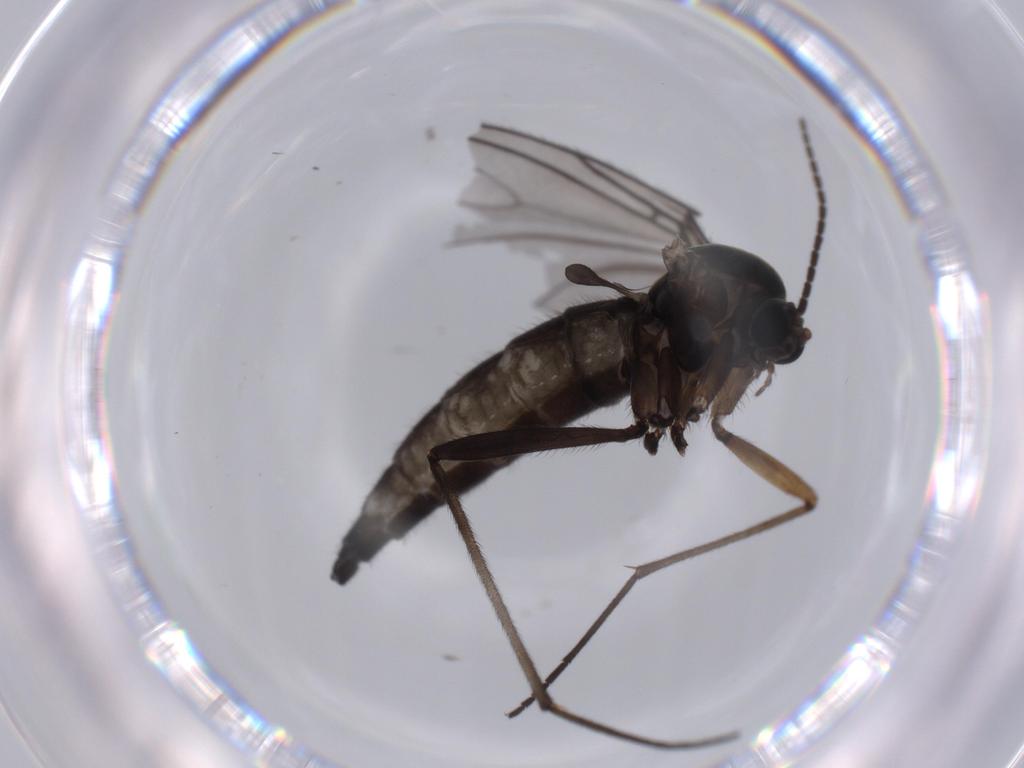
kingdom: Animalia
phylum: Arthropoda
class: Insecta
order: Diptera
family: Sciaridae
